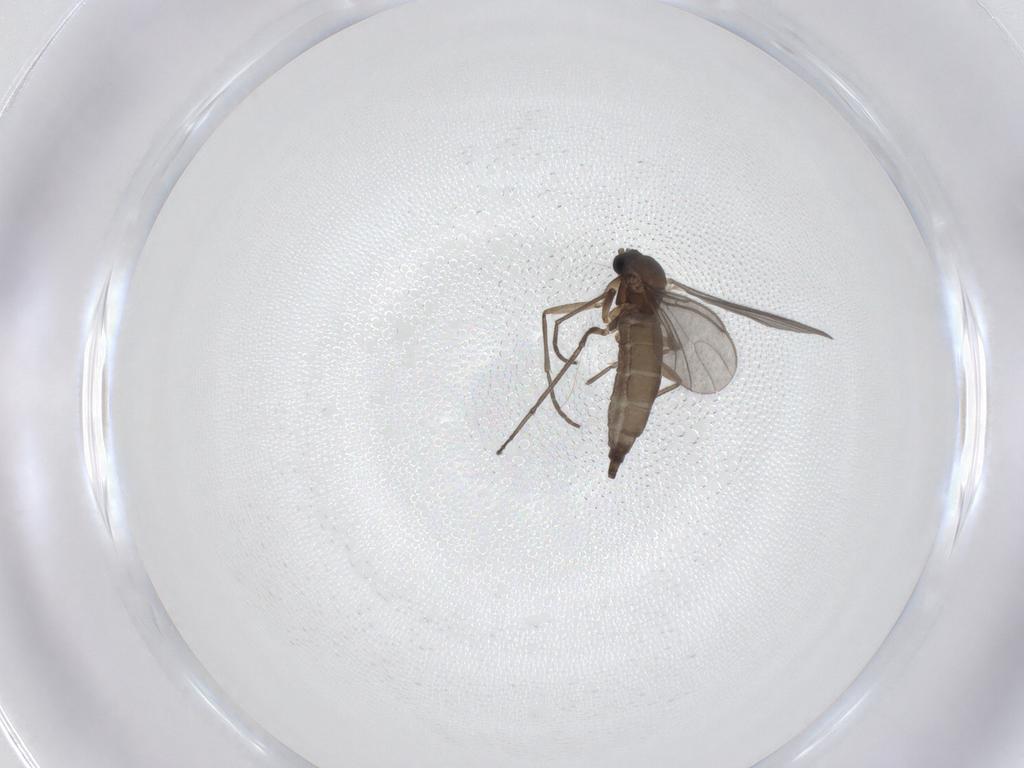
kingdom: Animalia
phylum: Arthropoda
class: Insecta
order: Diptera
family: Sciaridae
